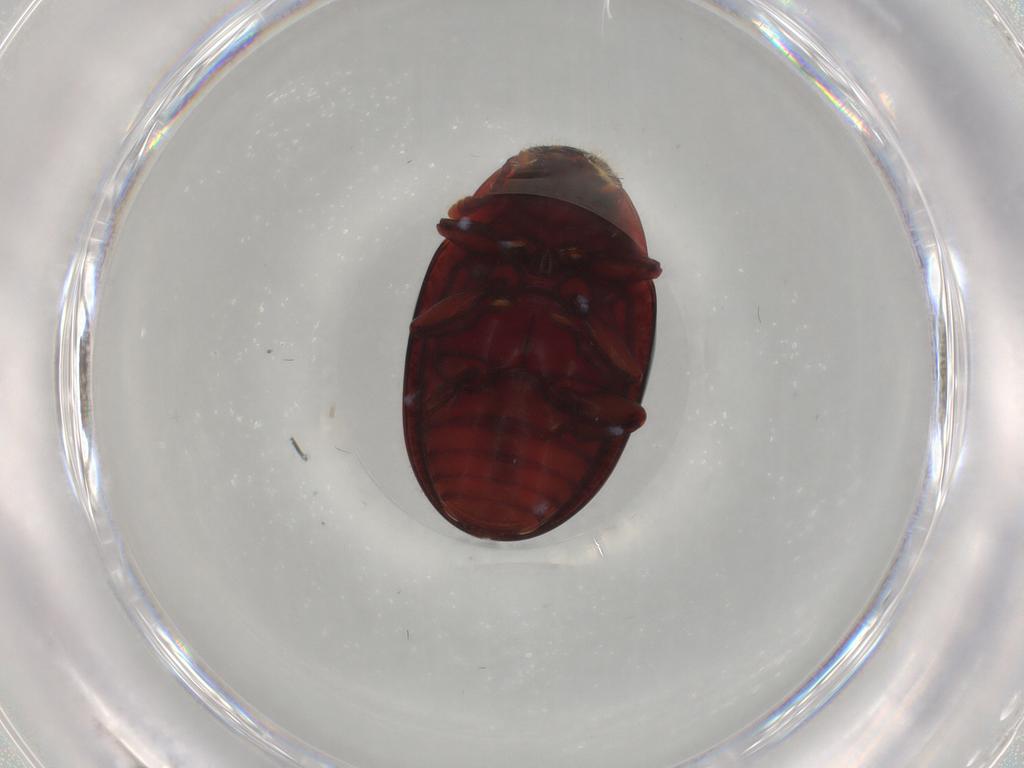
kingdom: Animalia
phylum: Arthropoda
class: Insecta
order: Coleoptera
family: Zopheridae
